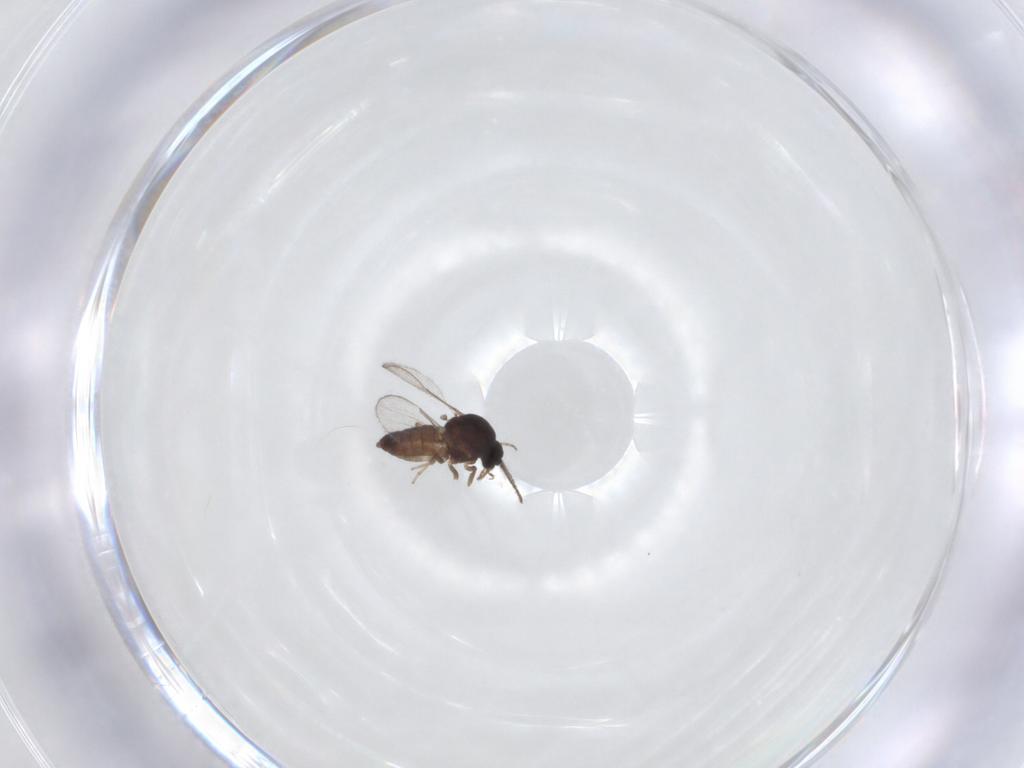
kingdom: Animalia
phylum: Arthropoda
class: Insecta
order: Diptera
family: Ceratopogonidae
